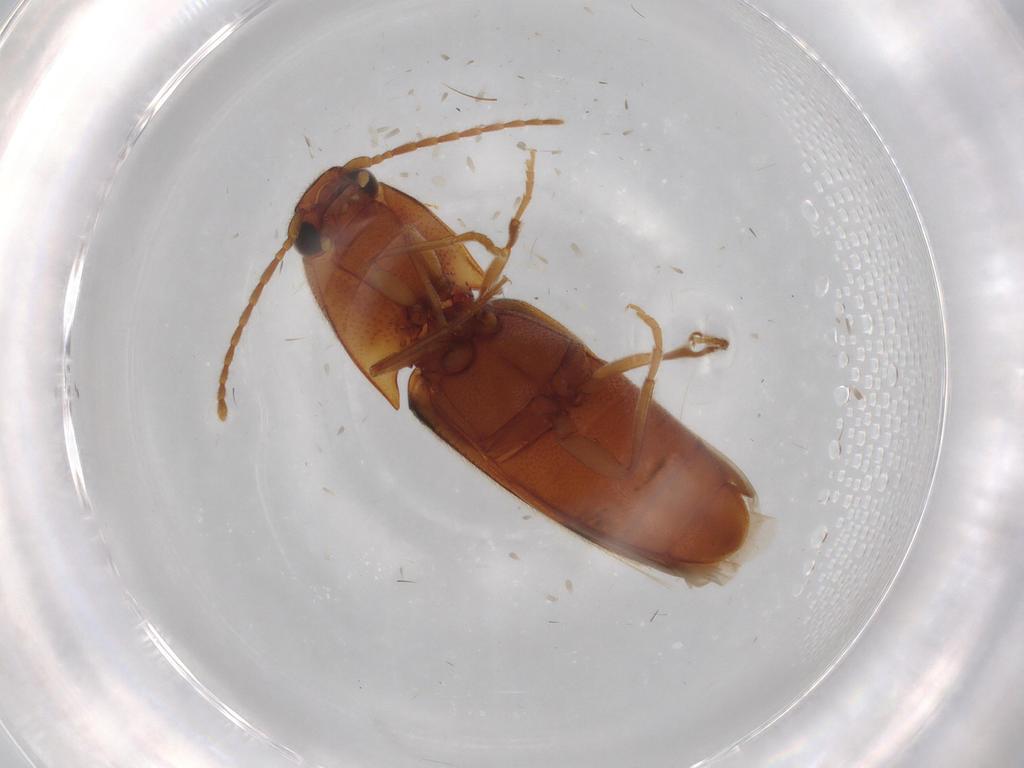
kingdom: Animalia
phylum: Arthropoda
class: Insecta
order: Coleoptera
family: Elateridae
